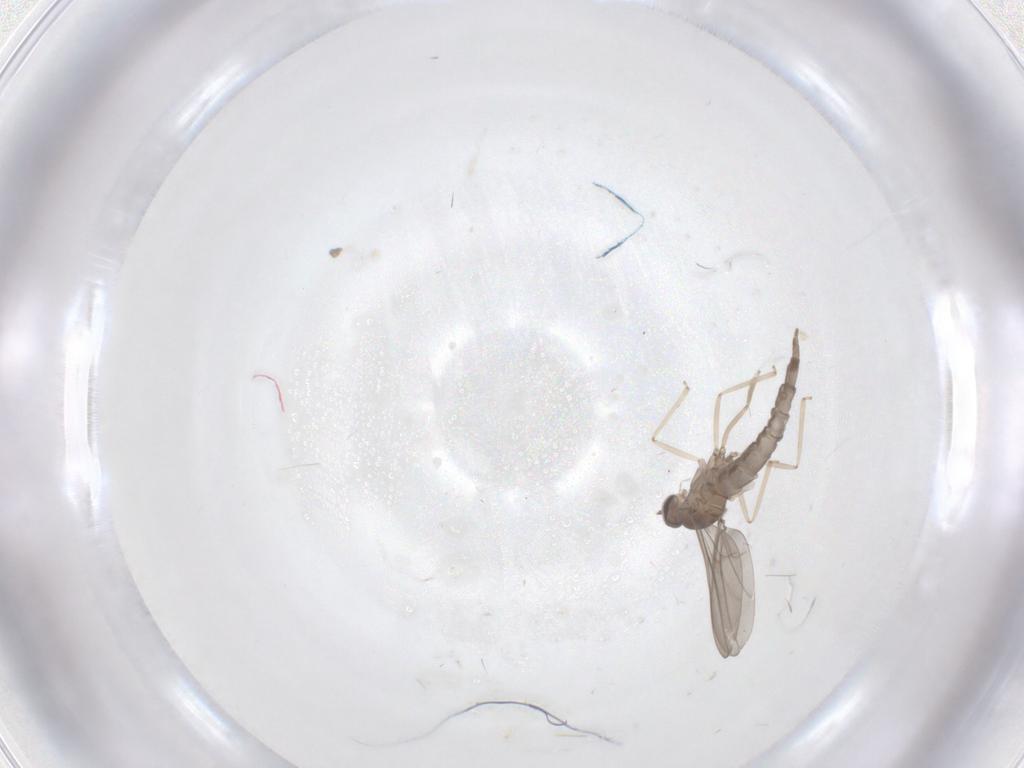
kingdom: Animalia
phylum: Arthropoda
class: Insecta
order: Diptera
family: Cecidomyiidae
